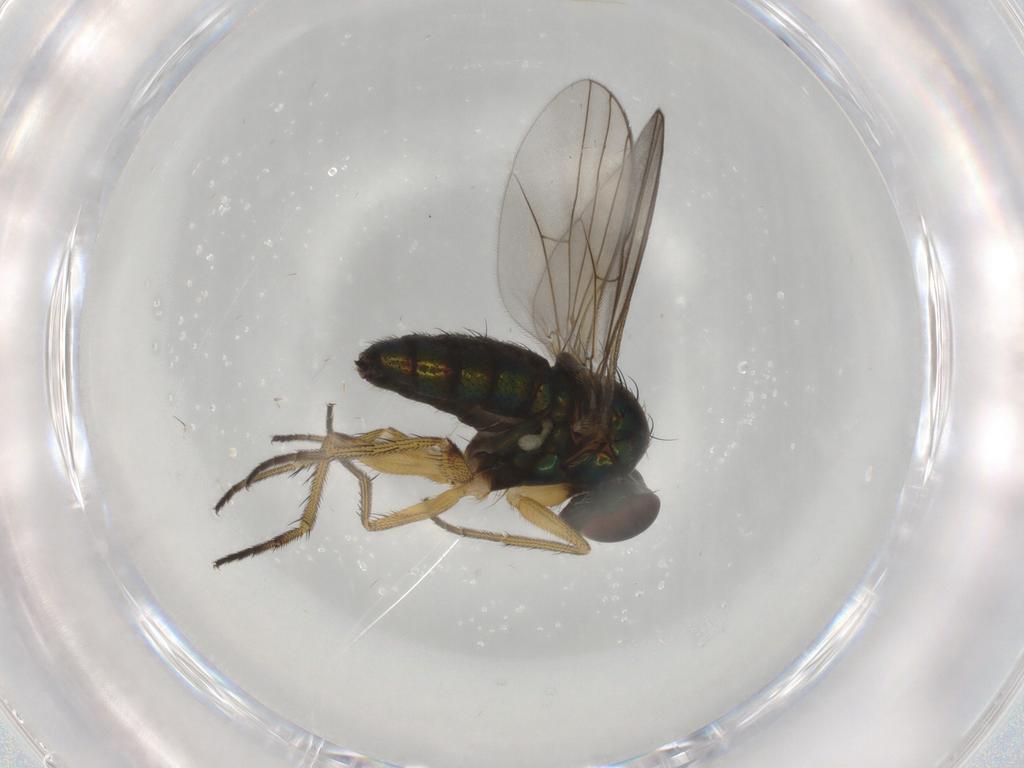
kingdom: Animalia
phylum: Arthropoda
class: Insecta
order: Diptera
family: Dolichopodidae
